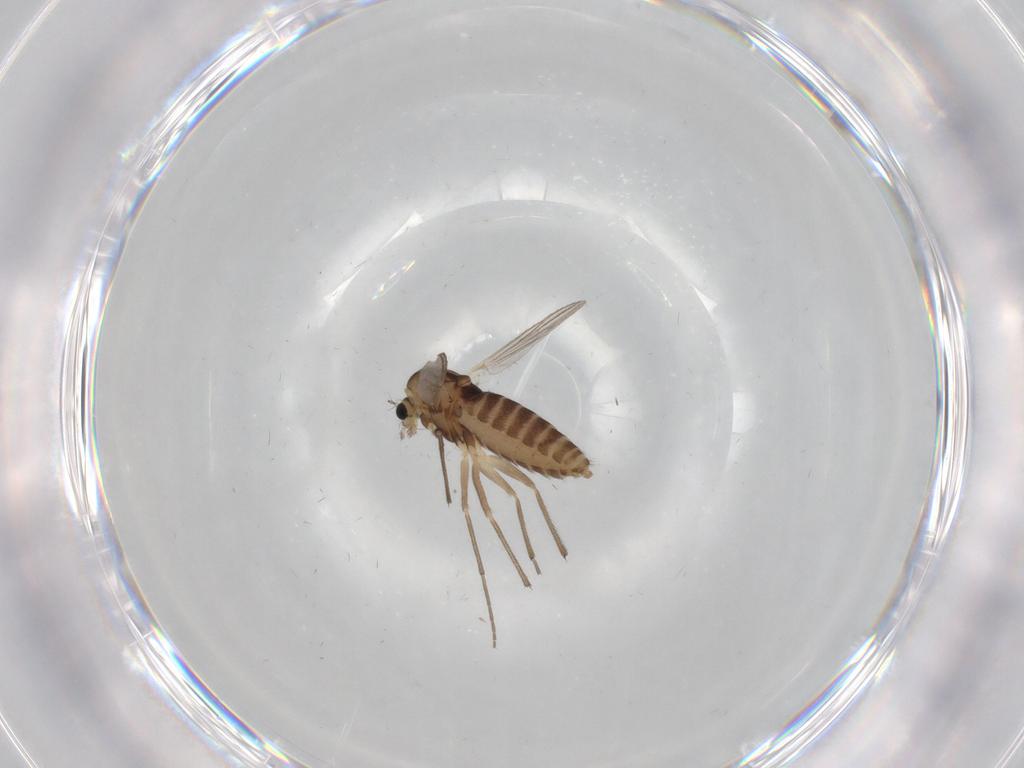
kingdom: Animalia
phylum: Arthropoda
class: Insecta
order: Diptera
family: Chironomidae
